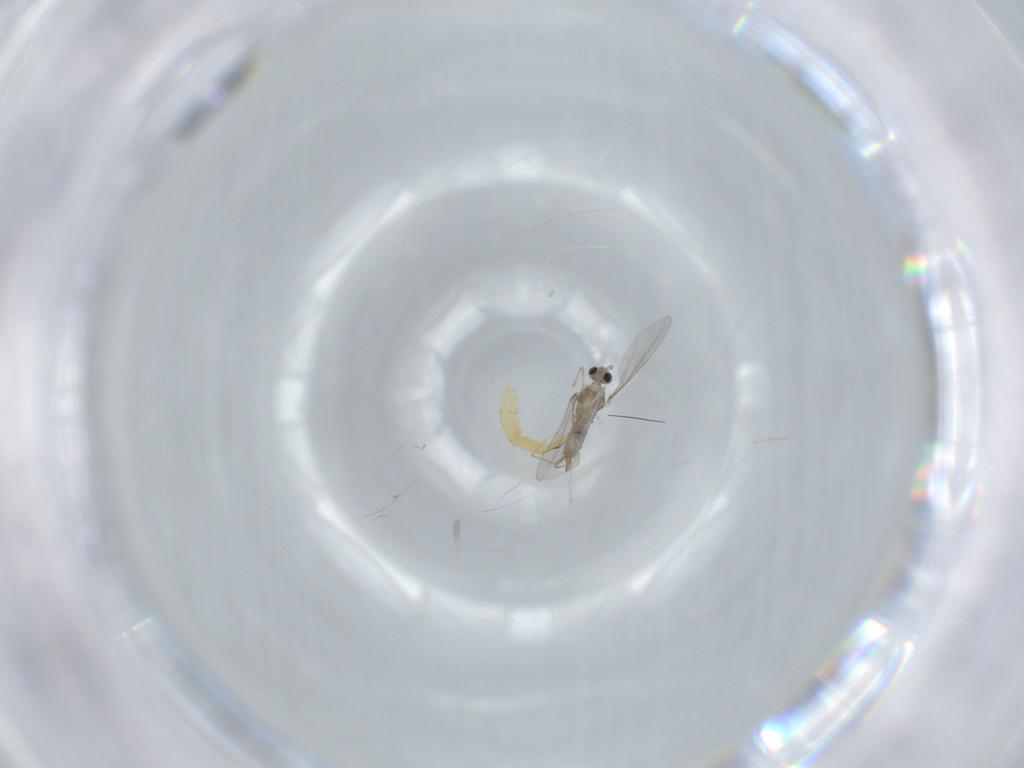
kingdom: Animalia
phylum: Arthropoda
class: Insecta
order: Diptera
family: Cecidomyiidae
